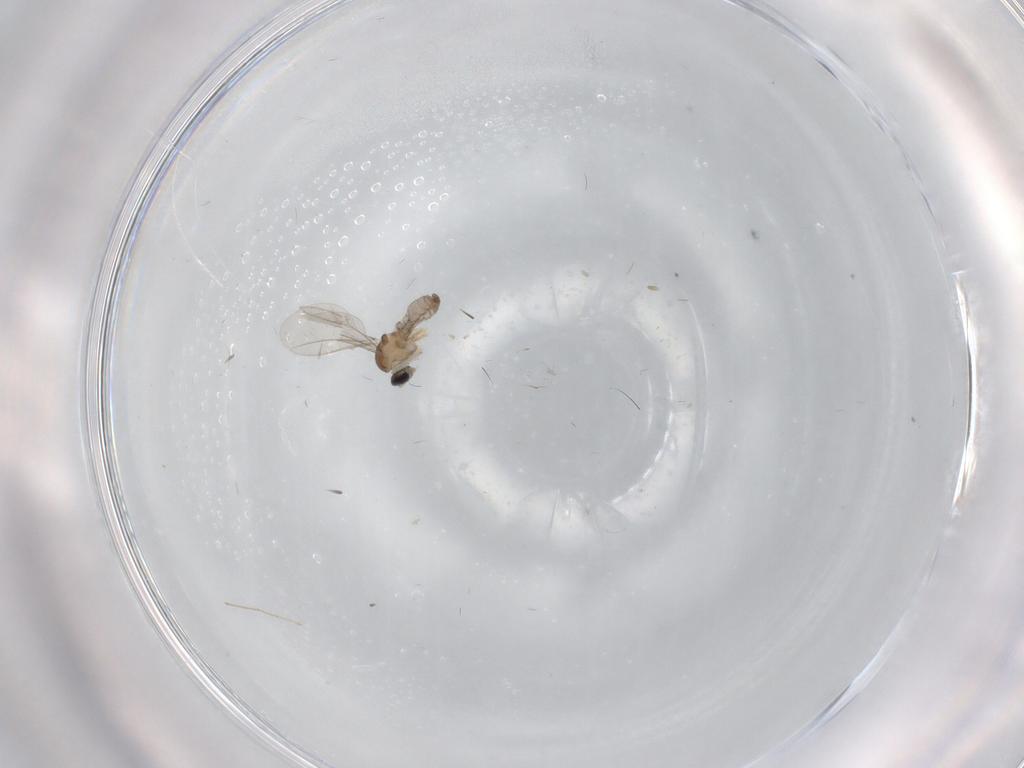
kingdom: Animalia
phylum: Arthropoda
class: Insecta
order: Diptera
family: Cecidomyiidae
